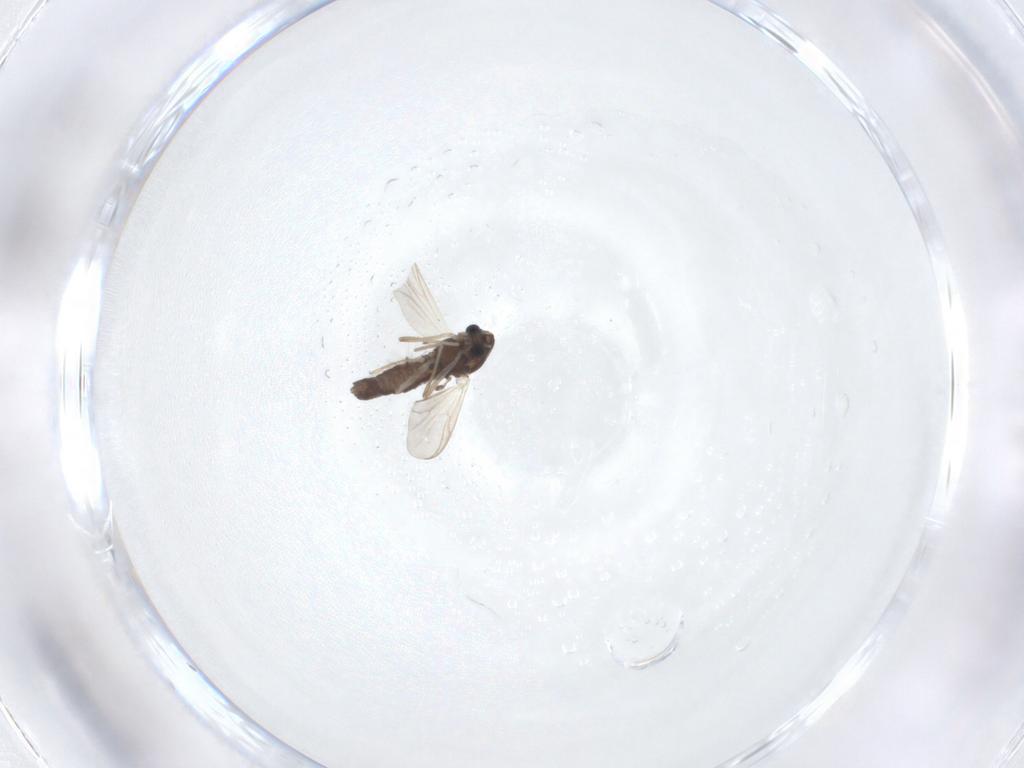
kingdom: Animalia
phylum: Arthropoda
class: Insecta
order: Diptera
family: Chironomidae
